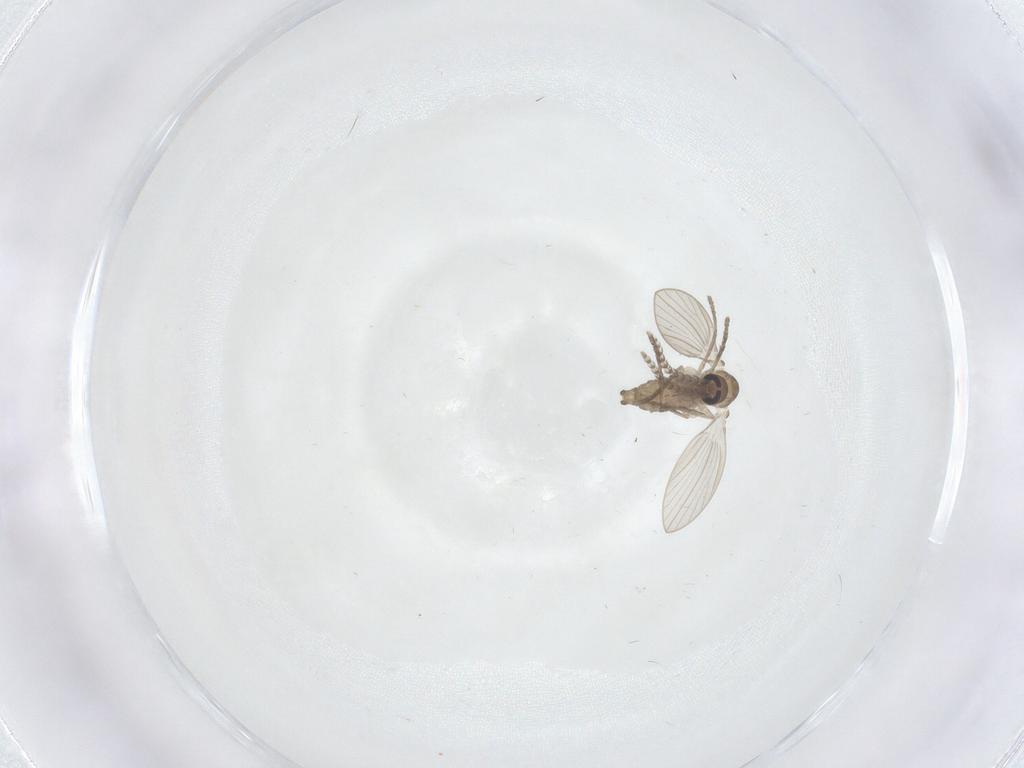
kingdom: Animalia
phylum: Arthropoda
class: Insecta
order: Diptera
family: Psychodidae
